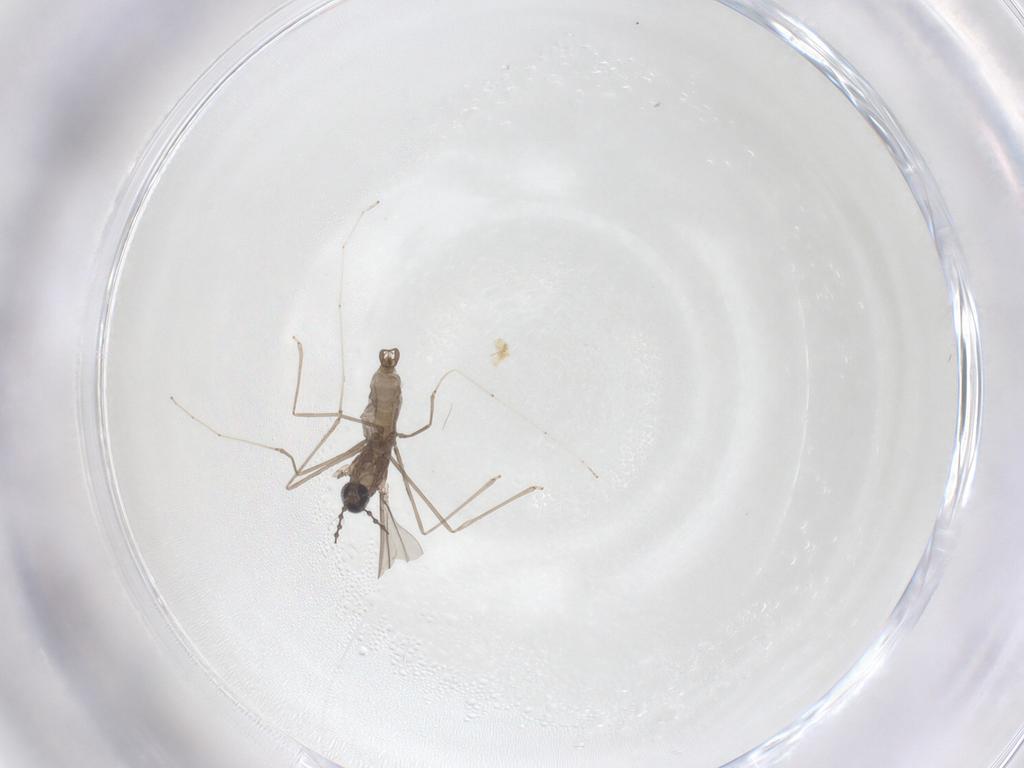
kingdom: Animalia
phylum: Arthropoda
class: Insecta
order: Diptera
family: Cecidomyiidae
